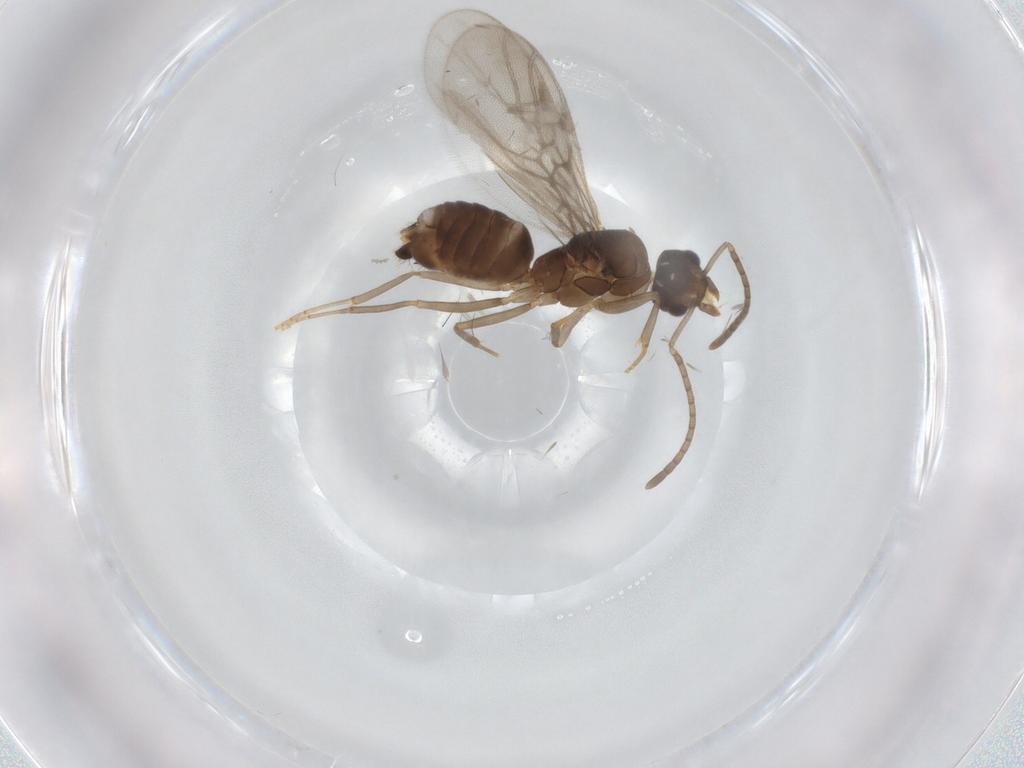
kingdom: Animalia
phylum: Arthropoda
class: Insecta
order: Hymenoptera
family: Formicidae
